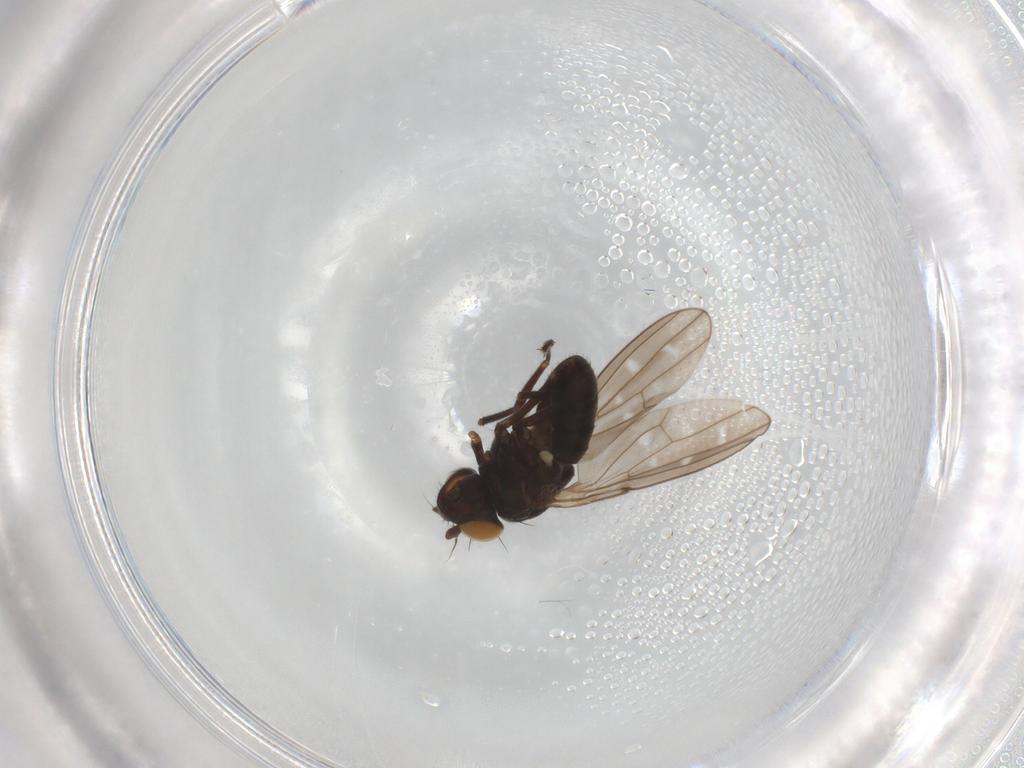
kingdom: Animalia
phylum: Arthropoda
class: Insecta
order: Diptera
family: Ephydridae
